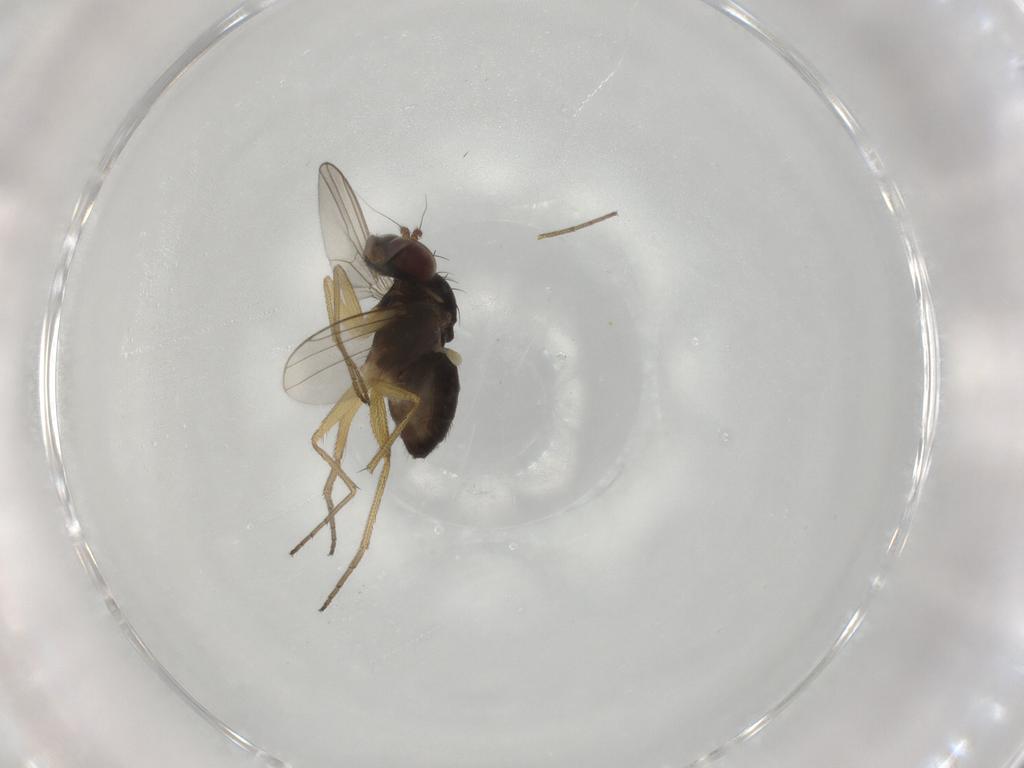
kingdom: Animalia
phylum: Arthropoda
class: Insecta
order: Diptera
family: Dolichopodidae
